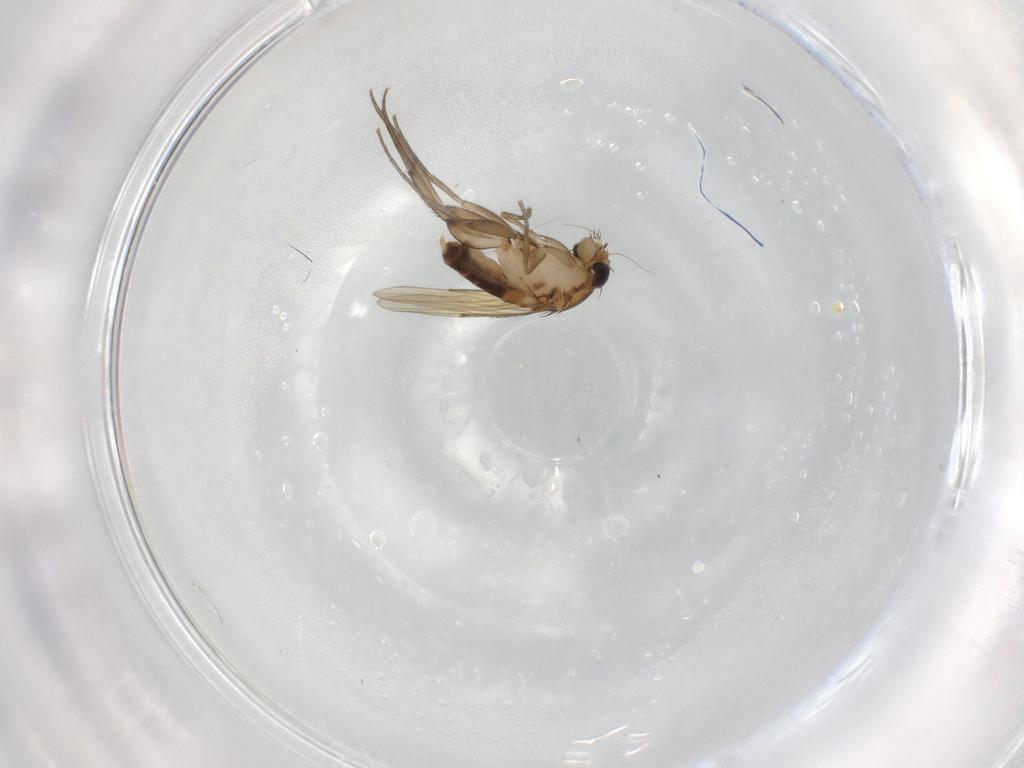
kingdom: Animalia
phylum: Arthropoda
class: Insecta
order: Diptera
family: Phoridae
